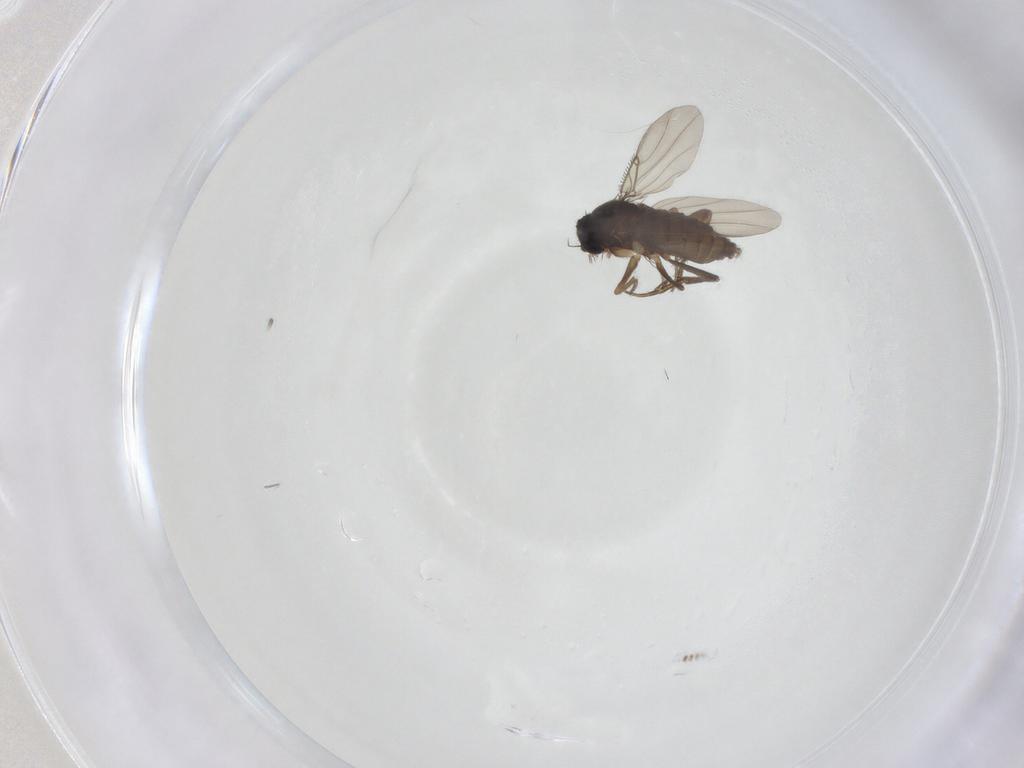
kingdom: Animalia
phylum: Arthropoda
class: Insecta
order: Diptera
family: Phoridae
